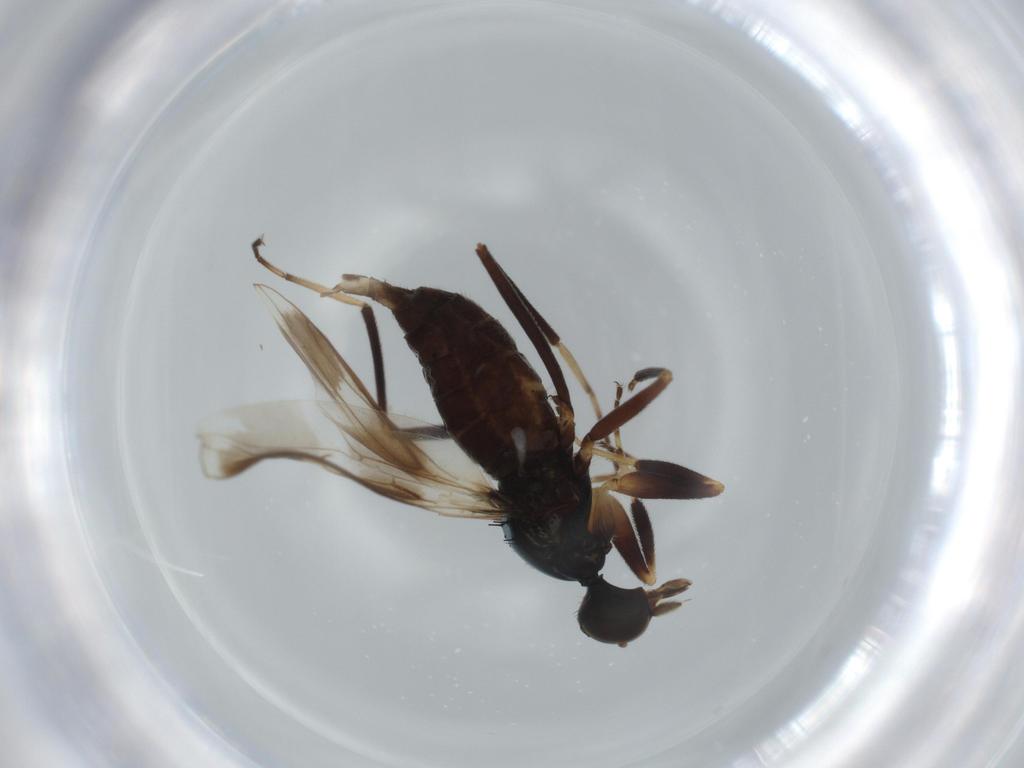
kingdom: Animalia
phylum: Arthropoda
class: Insecta
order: Diptera
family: Hybotidae
